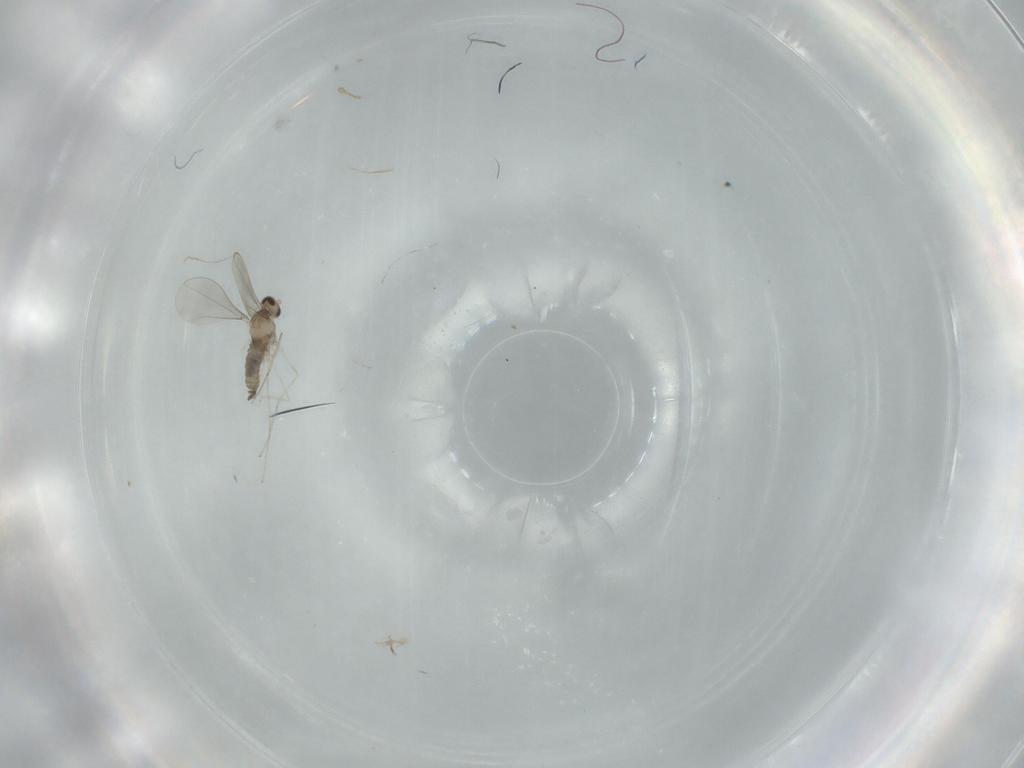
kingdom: Animalia
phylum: Arthropoda
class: Insecta
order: Diptera
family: Cecidomyiidae
